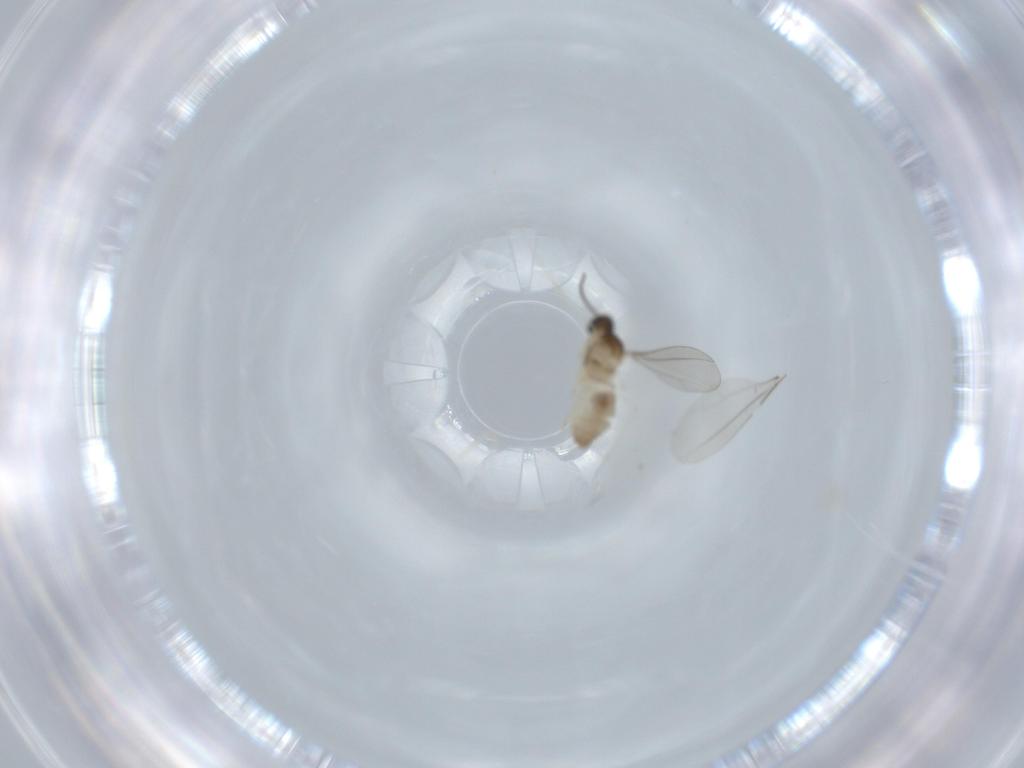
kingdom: Animalia
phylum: Arthropoda
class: Insecta
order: Diptera
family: Cecidomyiidae
